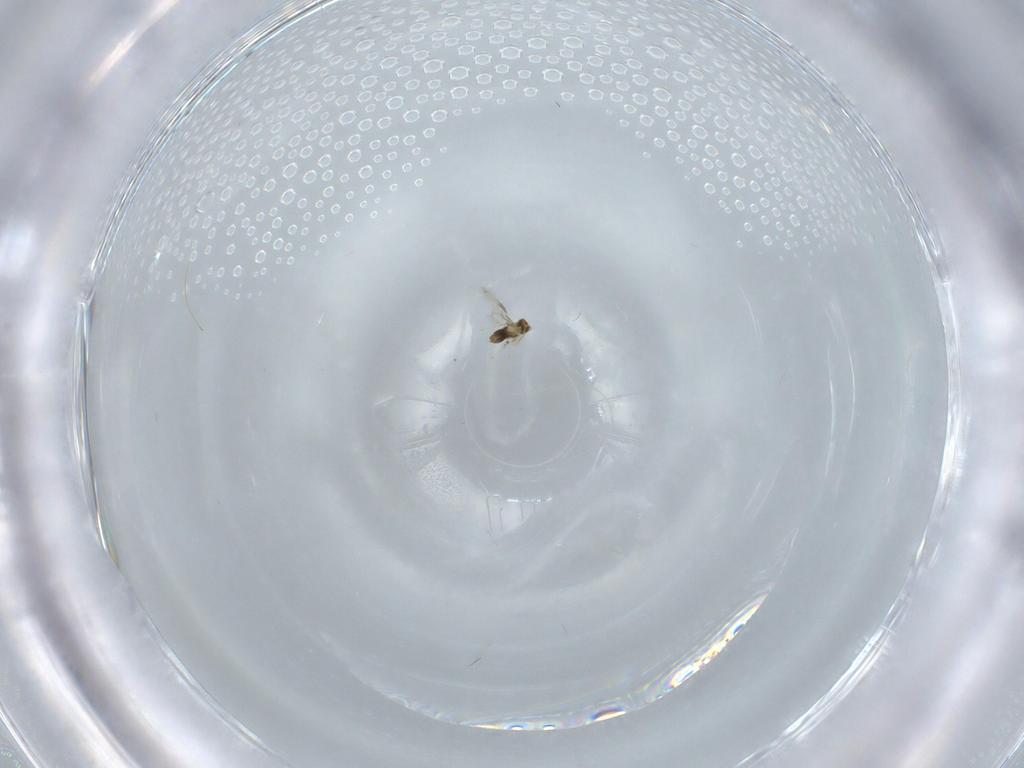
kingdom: Animalia
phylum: Arthropoda
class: Insecta
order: Hymenoptera
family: Aphelinidae
